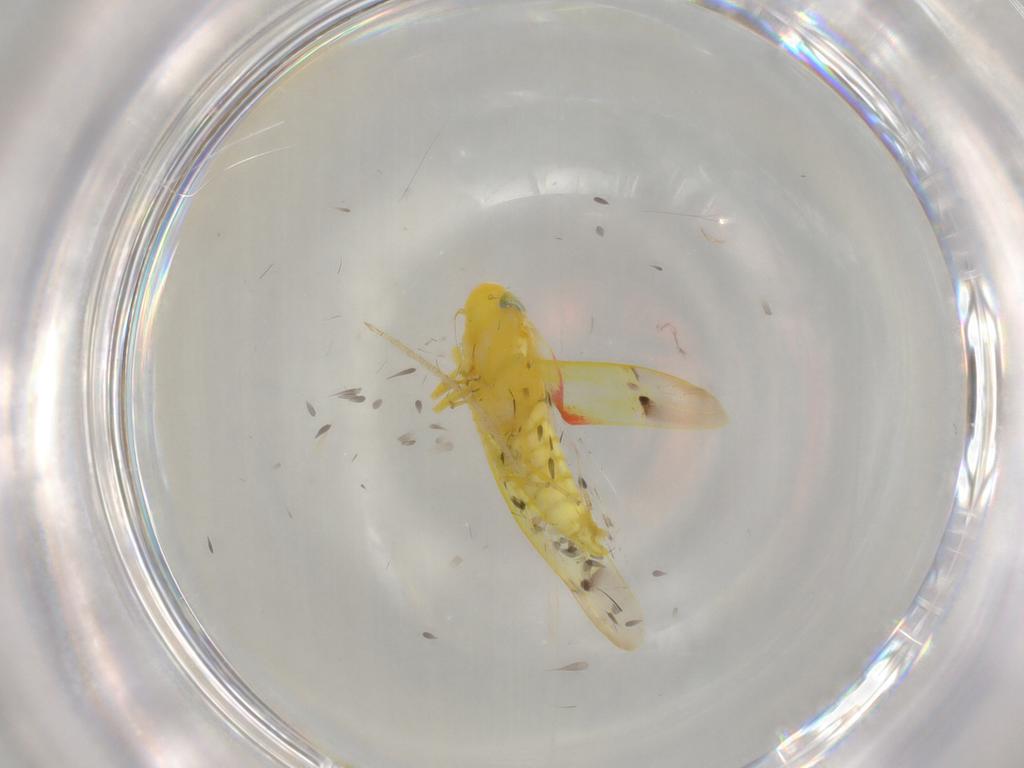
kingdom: Animalia
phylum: Arthropoda
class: Insecta
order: Hemiptera
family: Cicadellidae
